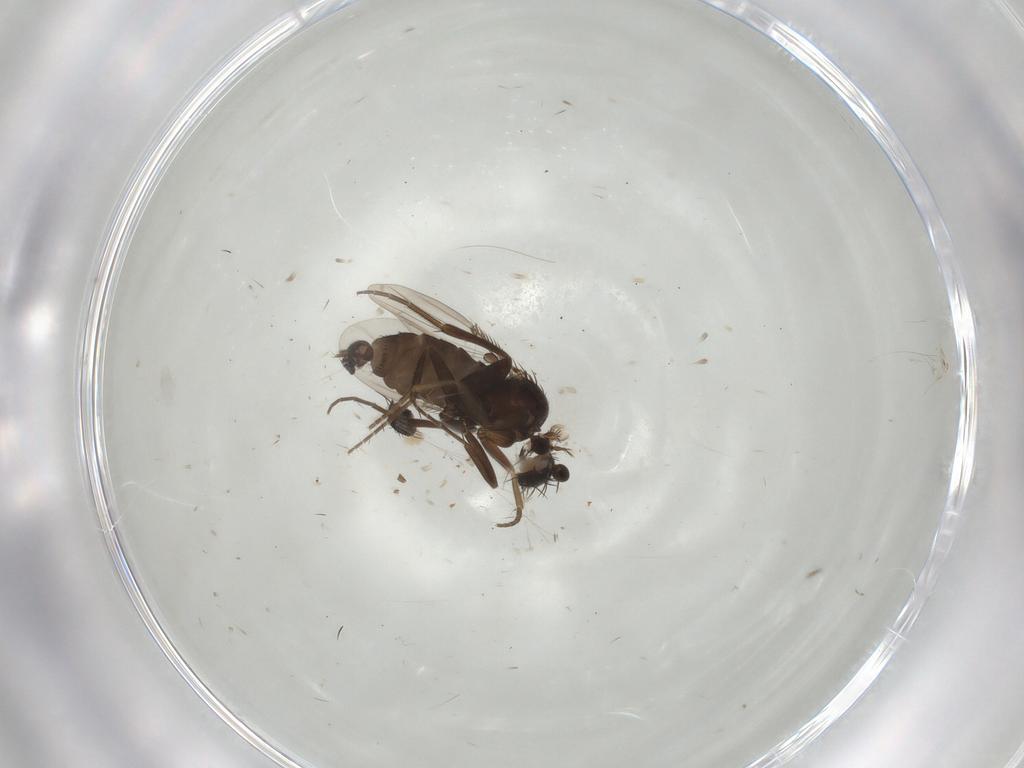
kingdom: Animalia
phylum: Arthropoda
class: Insecta
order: Diptera
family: Phoridae
